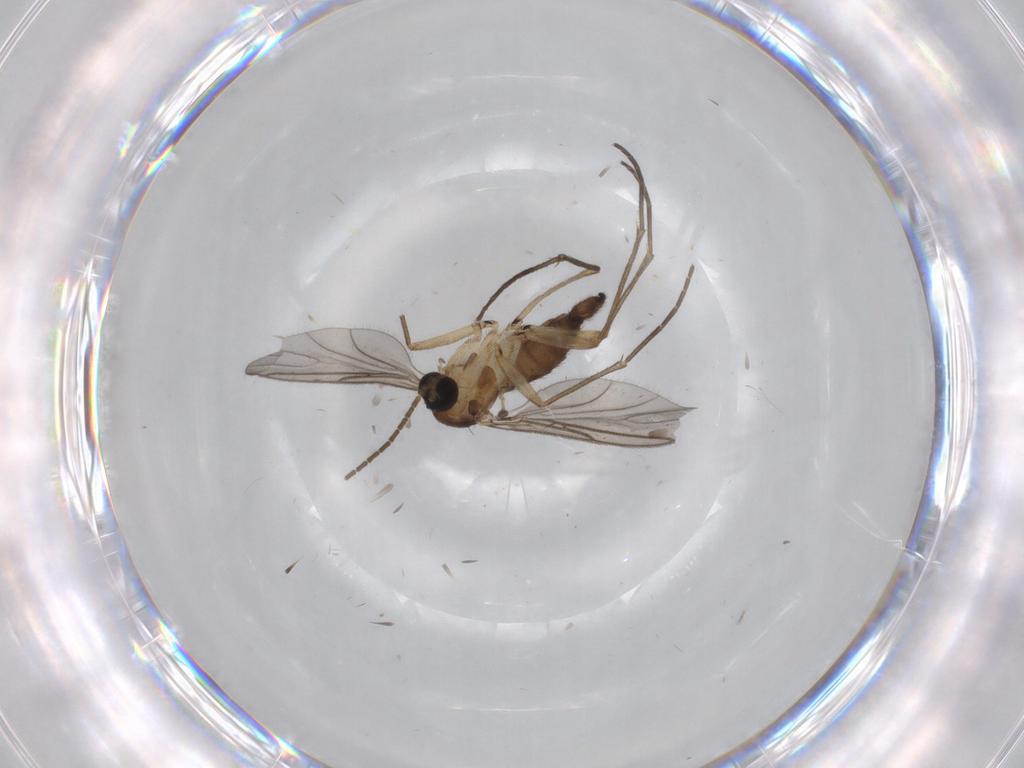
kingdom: Animalia
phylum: Arthropoda
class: Insecta
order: Diptera
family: Sciaridae
